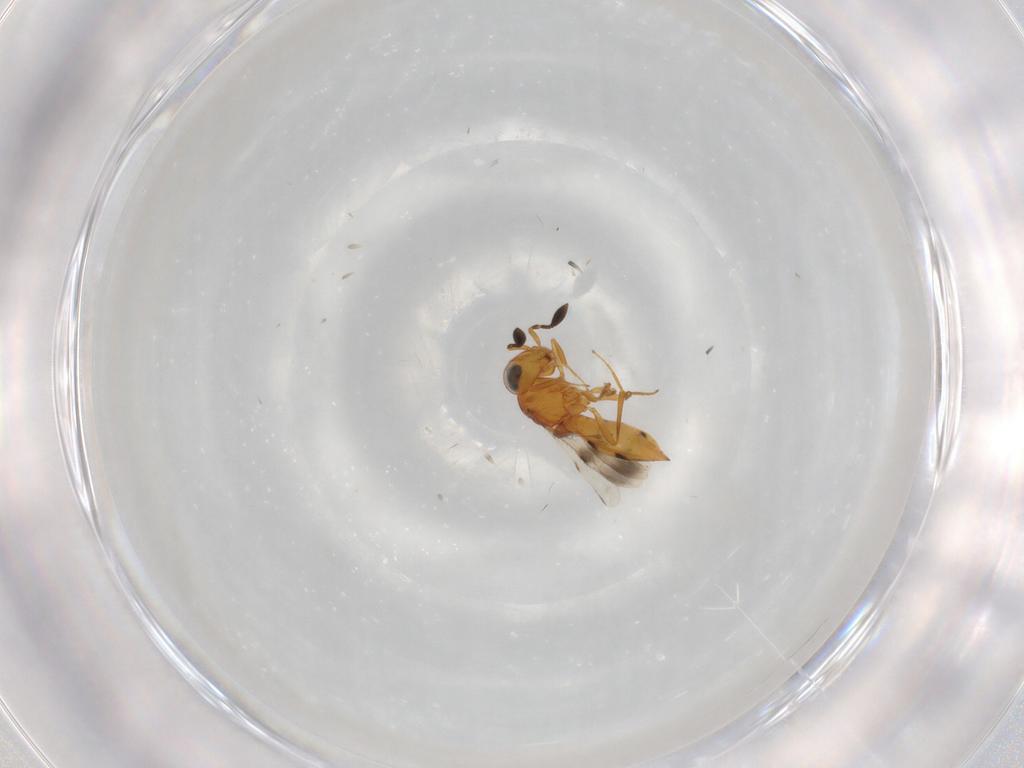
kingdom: Animalia
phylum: Arthropoda
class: Insecta
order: Hymenoptera
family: Scelionidae
